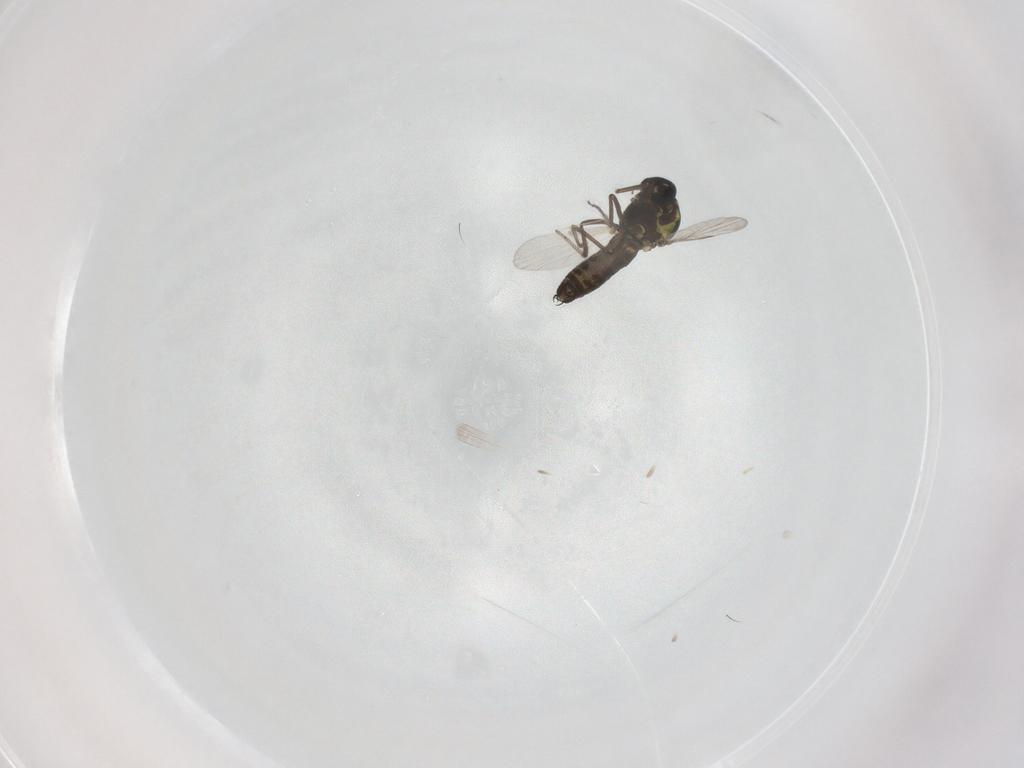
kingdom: Animalia
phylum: Arthropoda
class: Insecta
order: Diptera
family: Ceratopogonidae
